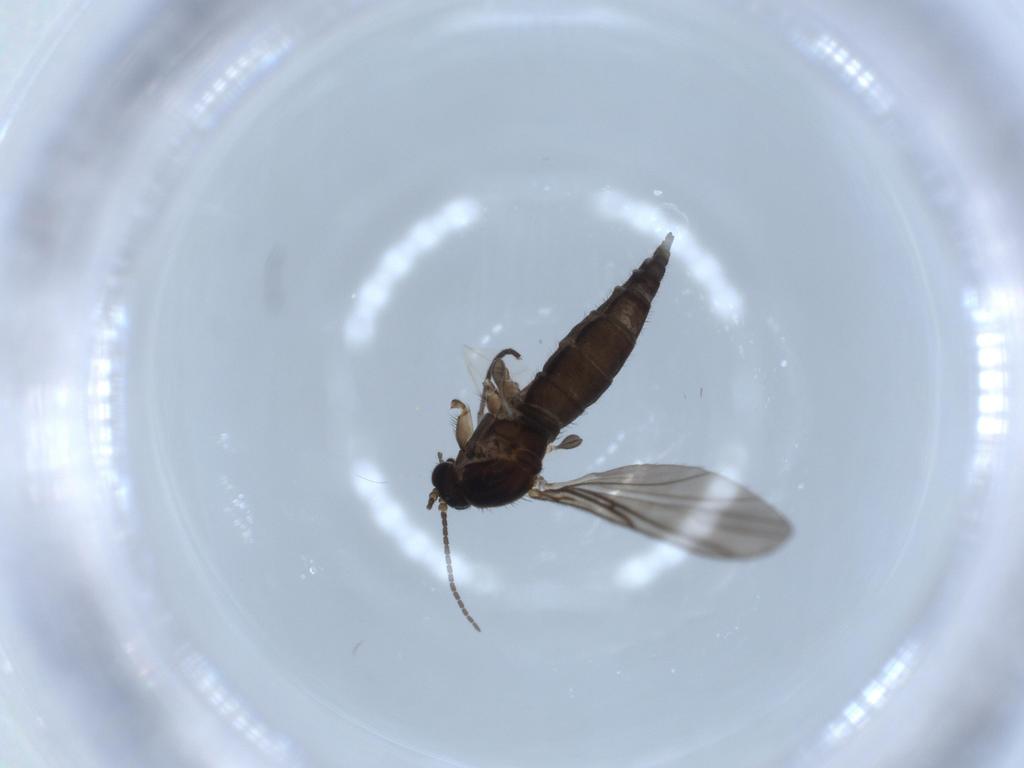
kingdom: Animalia
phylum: Arthropoda
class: Insecta
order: Diptera
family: Sciaridae
